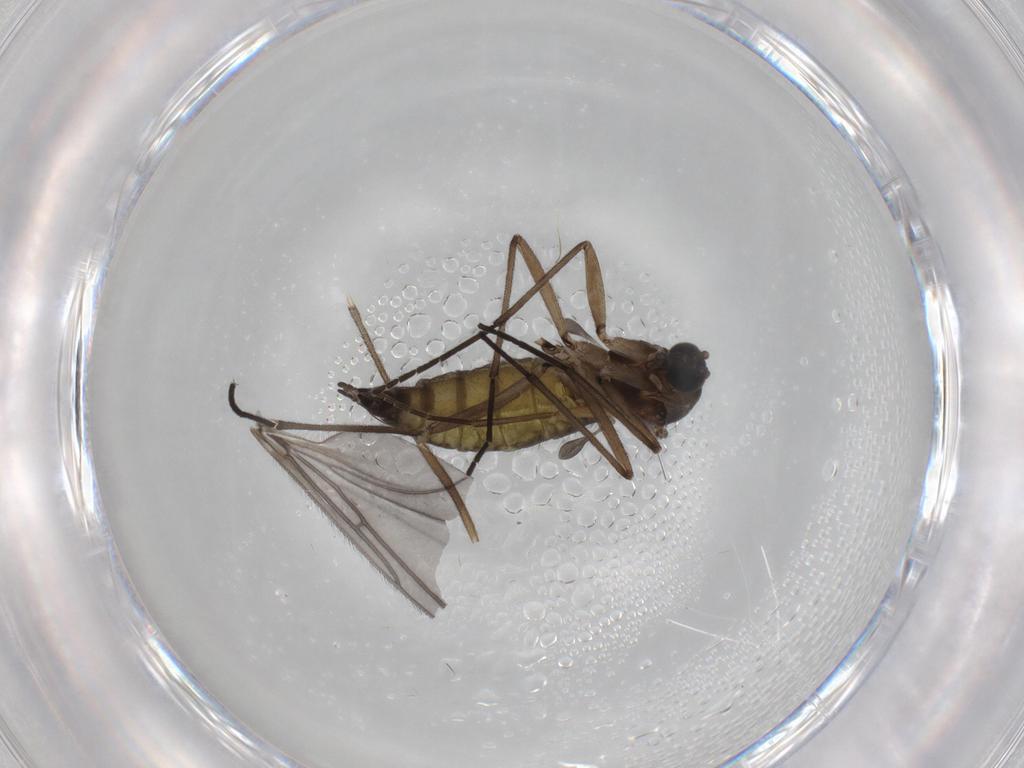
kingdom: Animalia
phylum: Arthropoda
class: Insecta
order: Diptera
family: Sciaridae
